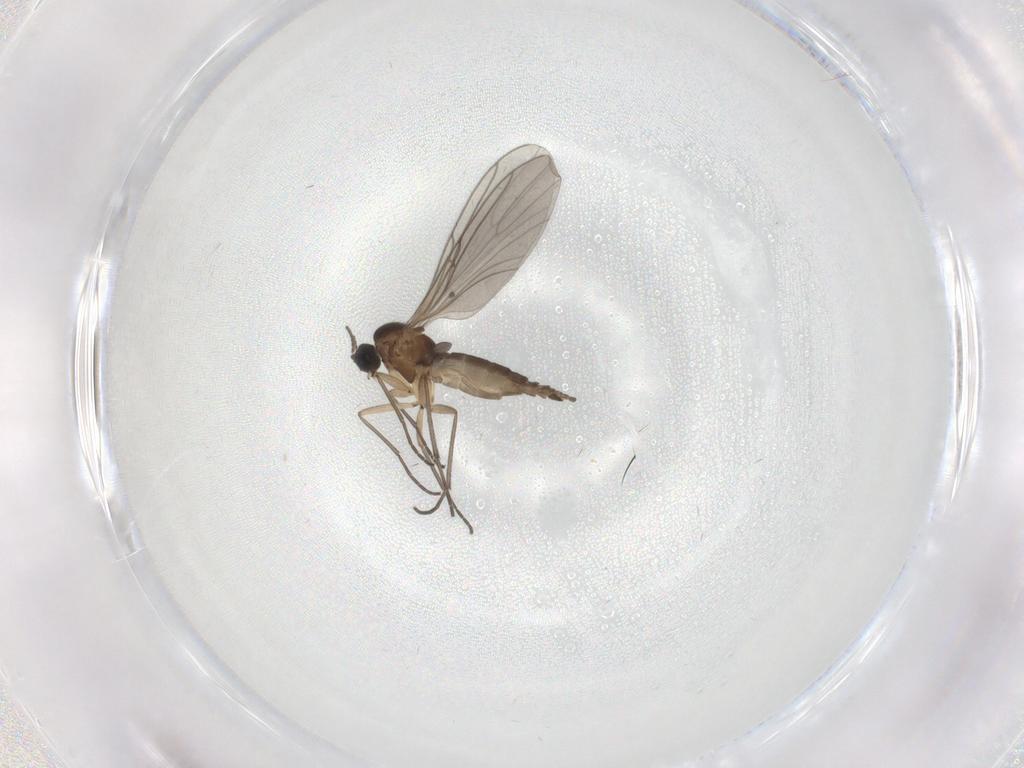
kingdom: Animalia
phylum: Arthropoda
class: Insecta
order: Diptera
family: Sciaridae
